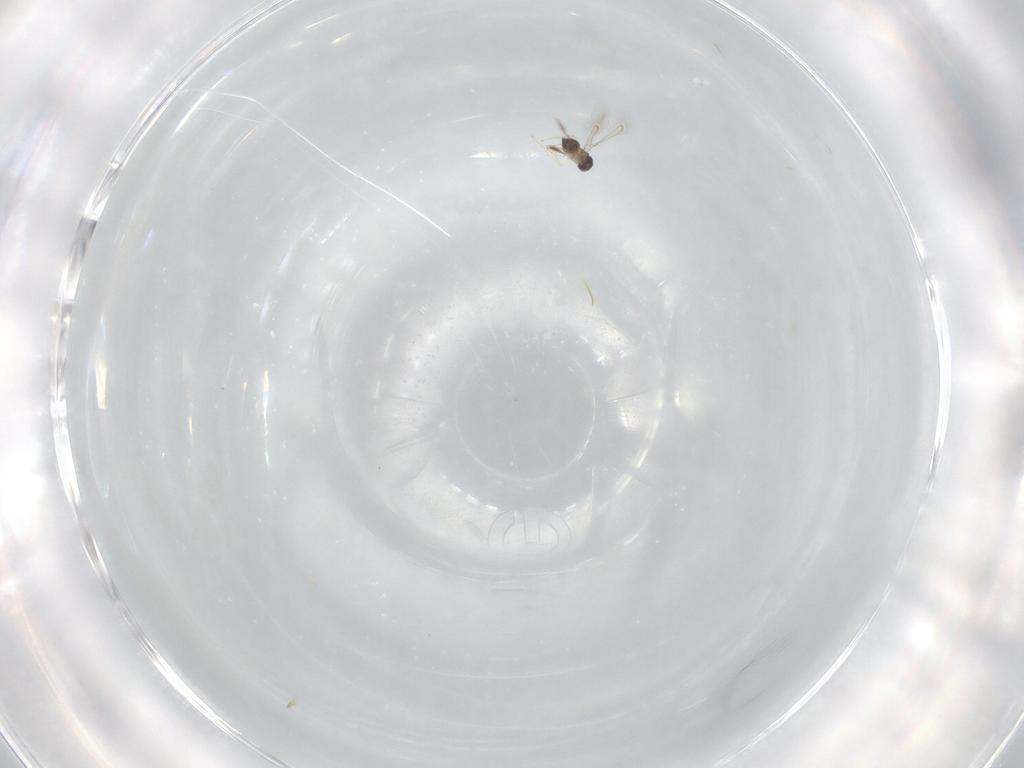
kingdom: Animalia
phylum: Arthropoda
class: Insecta
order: Hymenoptera
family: Encyrtidae
